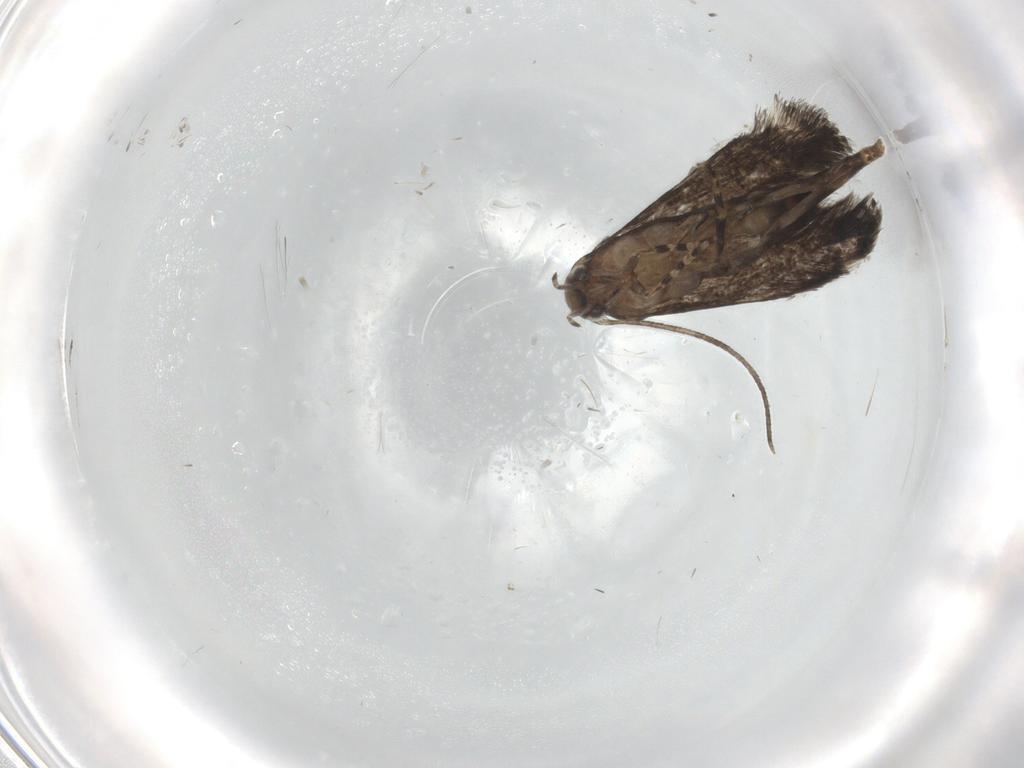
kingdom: Animalia
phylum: Arthropoda
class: Insecta
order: Lepidoptera
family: Elachistidae
